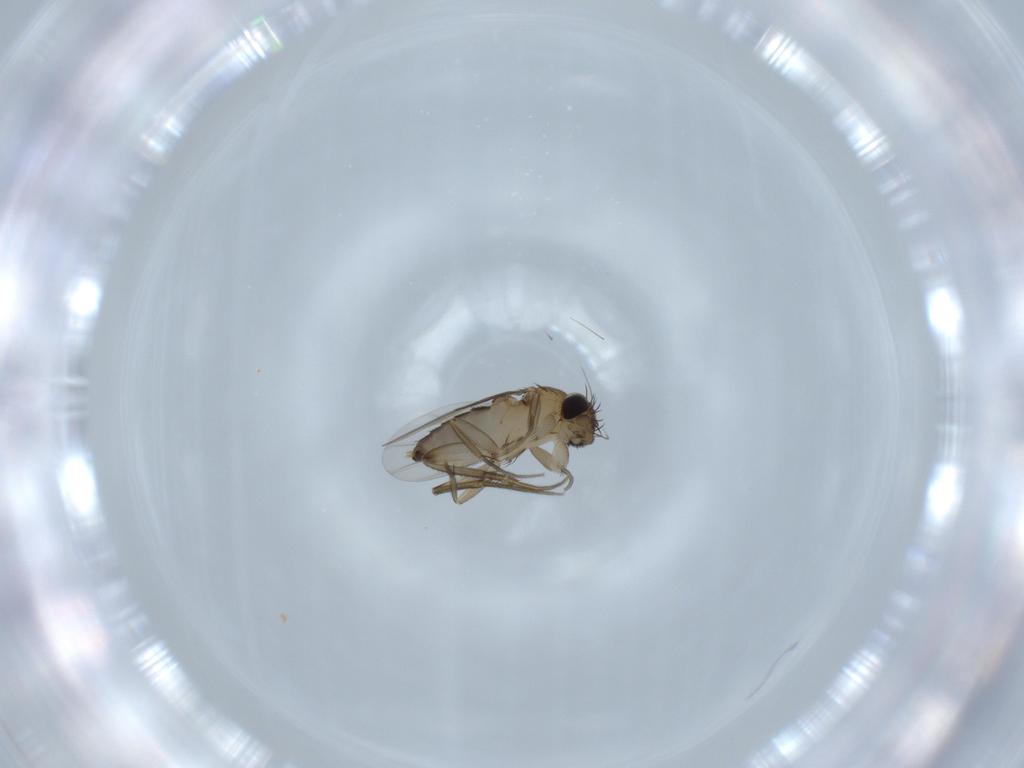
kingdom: Animalia
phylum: Arthropoda
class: Insecta
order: Diptera
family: Phoridae
